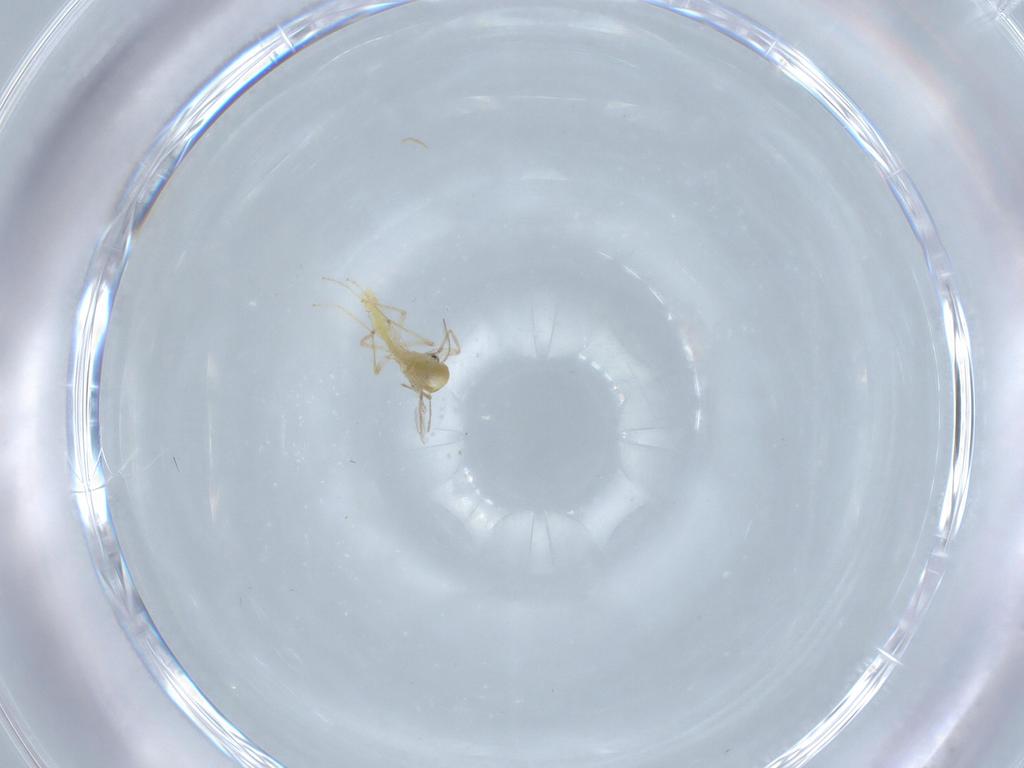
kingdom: Animalia
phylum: Arthropoda
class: Insecta
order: Diptera
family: Chironomidae
